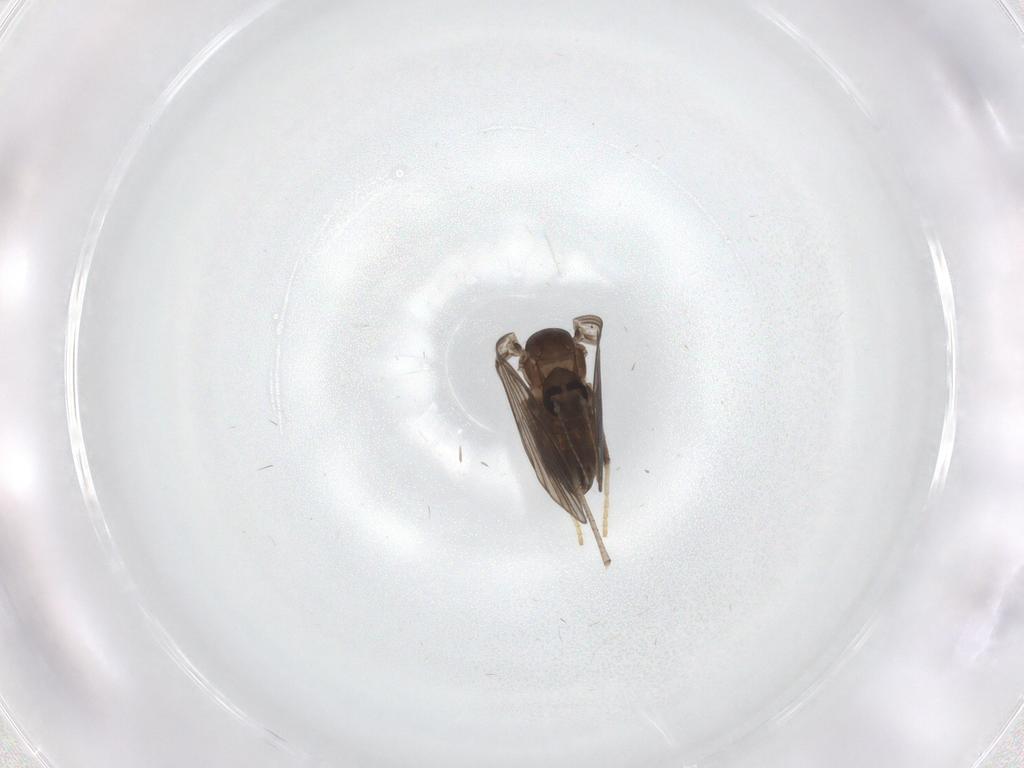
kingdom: Animalia
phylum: Arthropoda
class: Insecta
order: Diptera
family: Psychodidae
